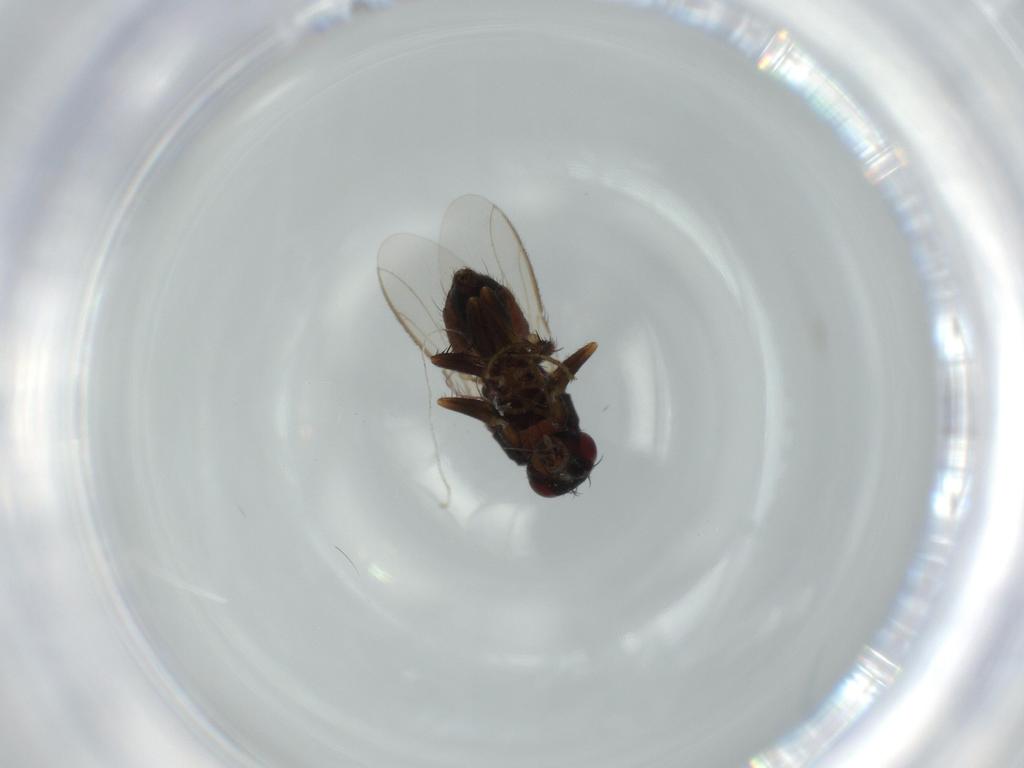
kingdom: Animalia
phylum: Arthropoda
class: Insecta
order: Diptera
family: Sphaeroceridae
